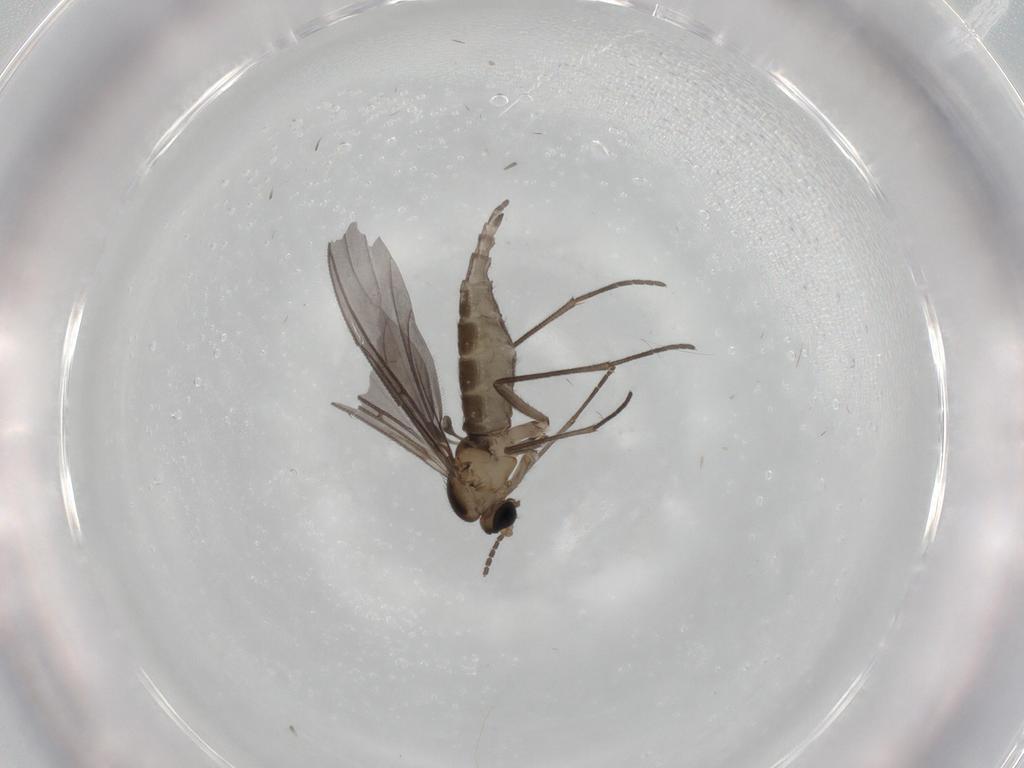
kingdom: Animalia
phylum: Arthropoda
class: Insecta
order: Diptera
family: Sciaridae
